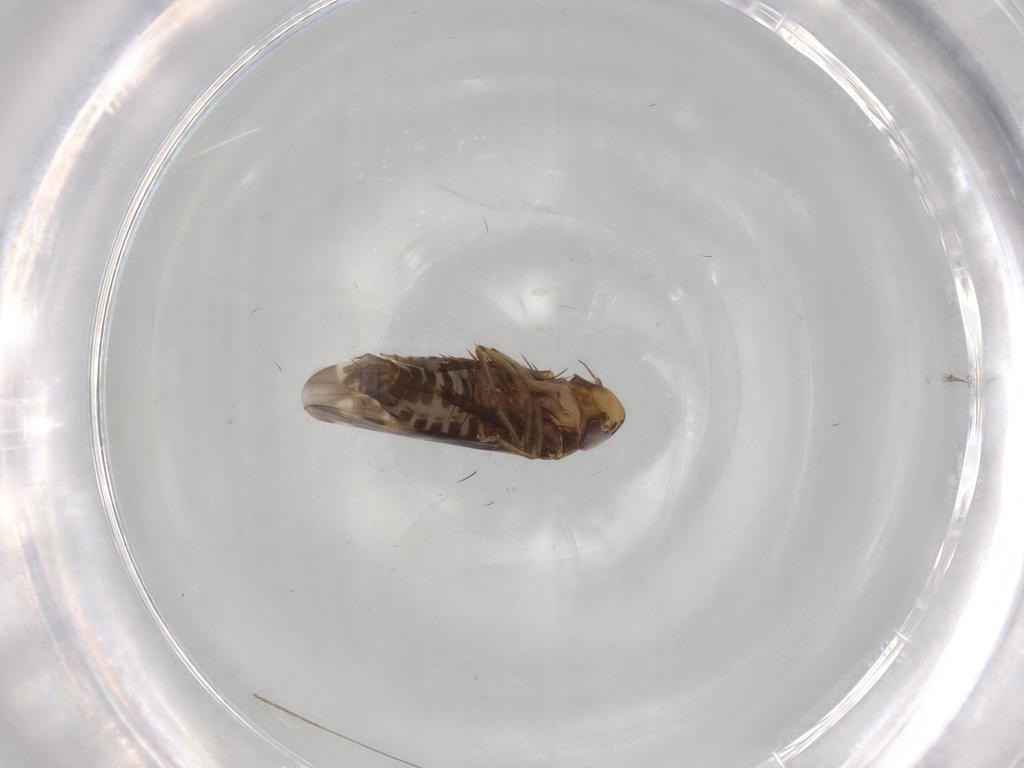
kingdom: Animalia
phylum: Arthropoda
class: Insecta
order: Hemiptera
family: Cicadellidae
